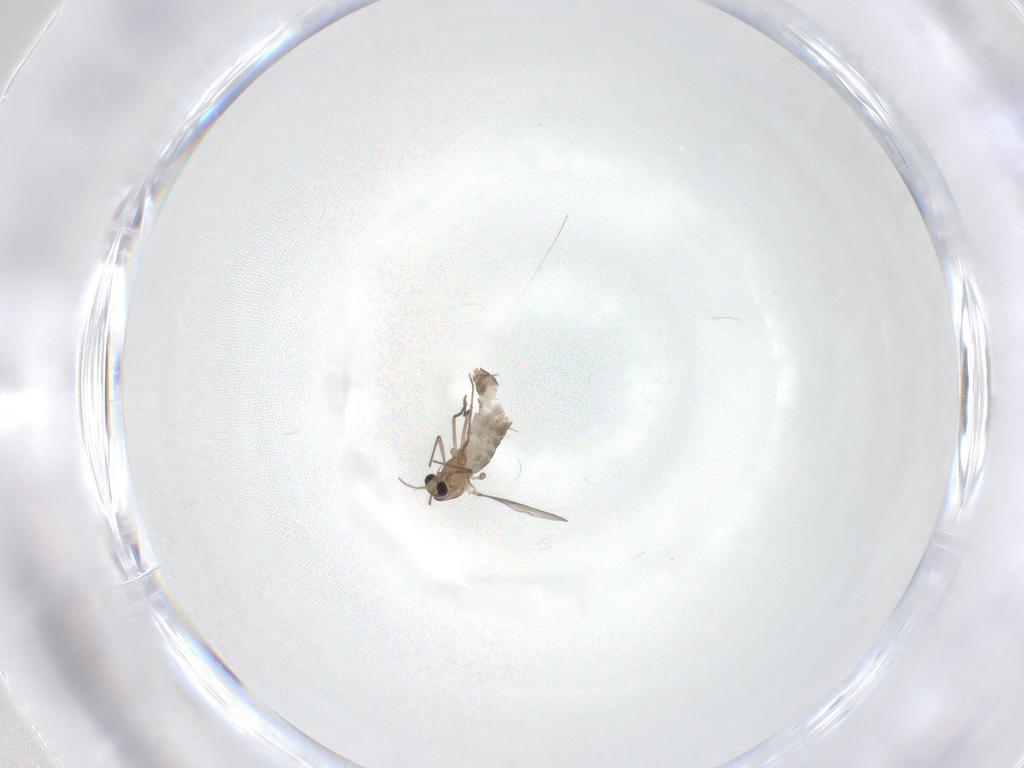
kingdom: Animalia
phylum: Arthropoda
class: Insecta
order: Diptera
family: Chironomidae
